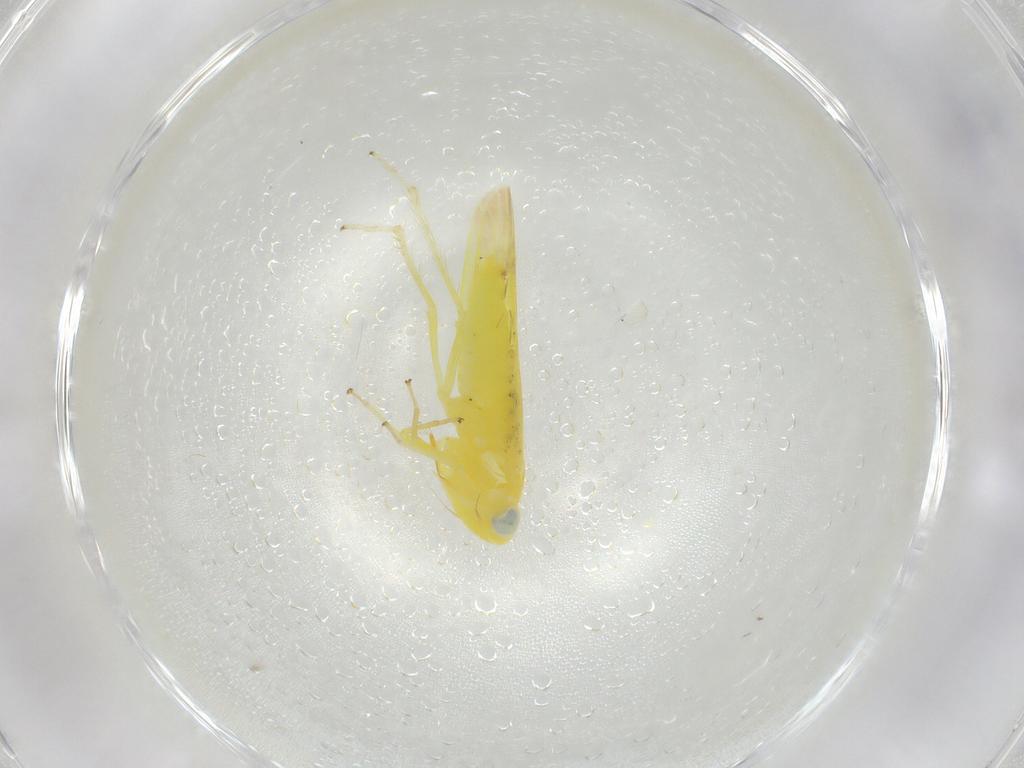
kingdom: Animalia
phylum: Arthropoda
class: Insecta
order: Hemiptera
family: Cicadellidae
